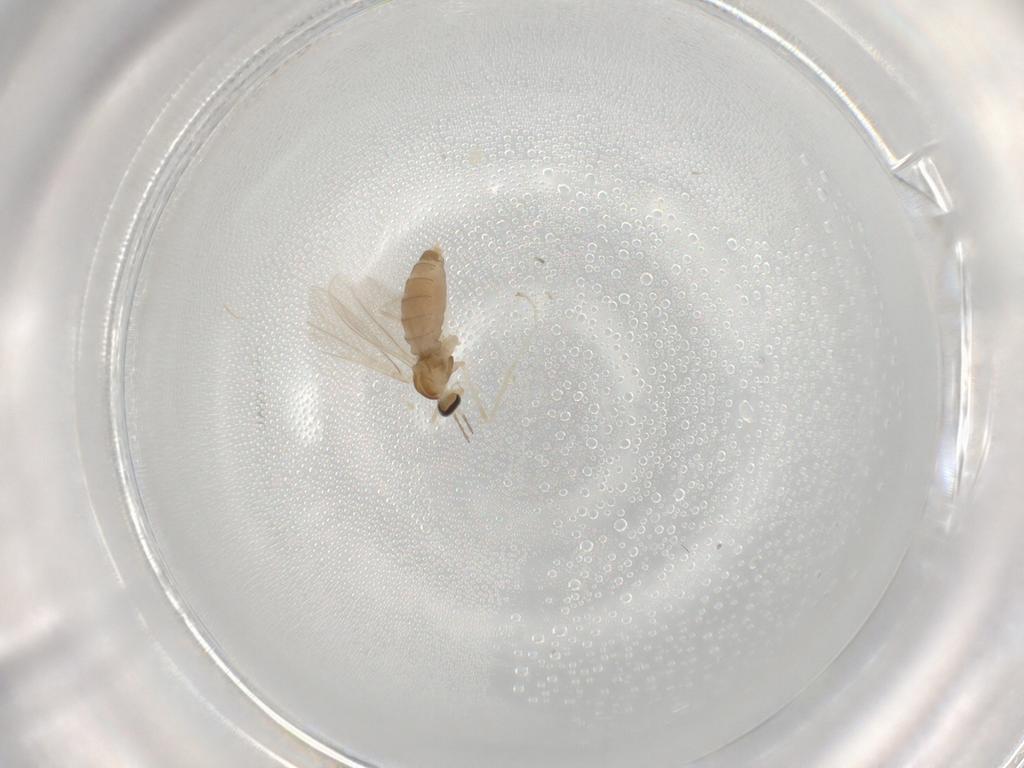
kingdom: Animalia
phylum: Arthropoda
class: Insecta
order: Diptera
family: Cecidomyiidae
